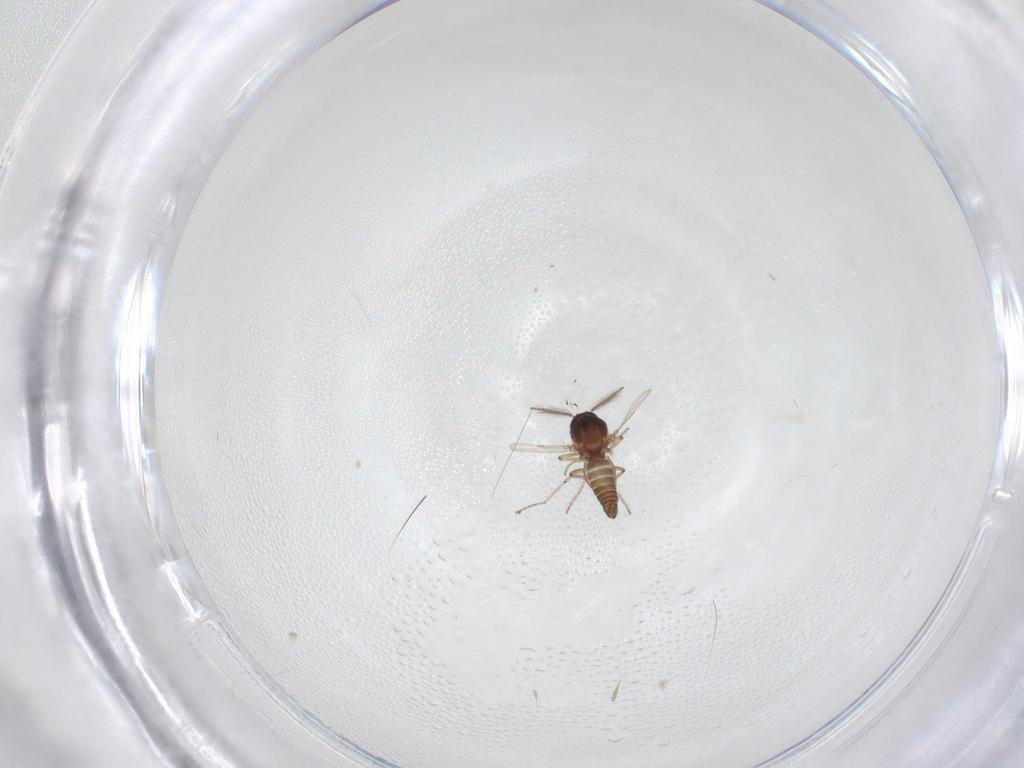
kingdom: Animalia
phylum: Arthropoda
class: Insecta
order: Diptera
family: Ceratopogonidae
